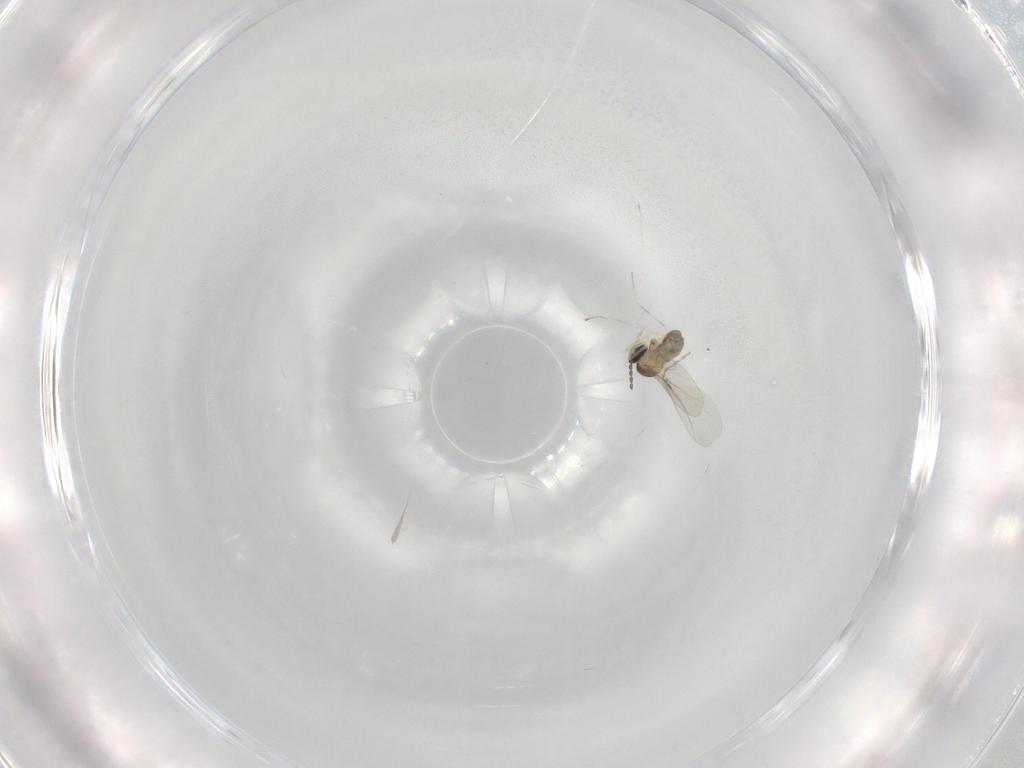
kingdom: Animalia
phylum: Arthropoda
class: Insecta
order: Diptera
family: Cecidomyiidae
